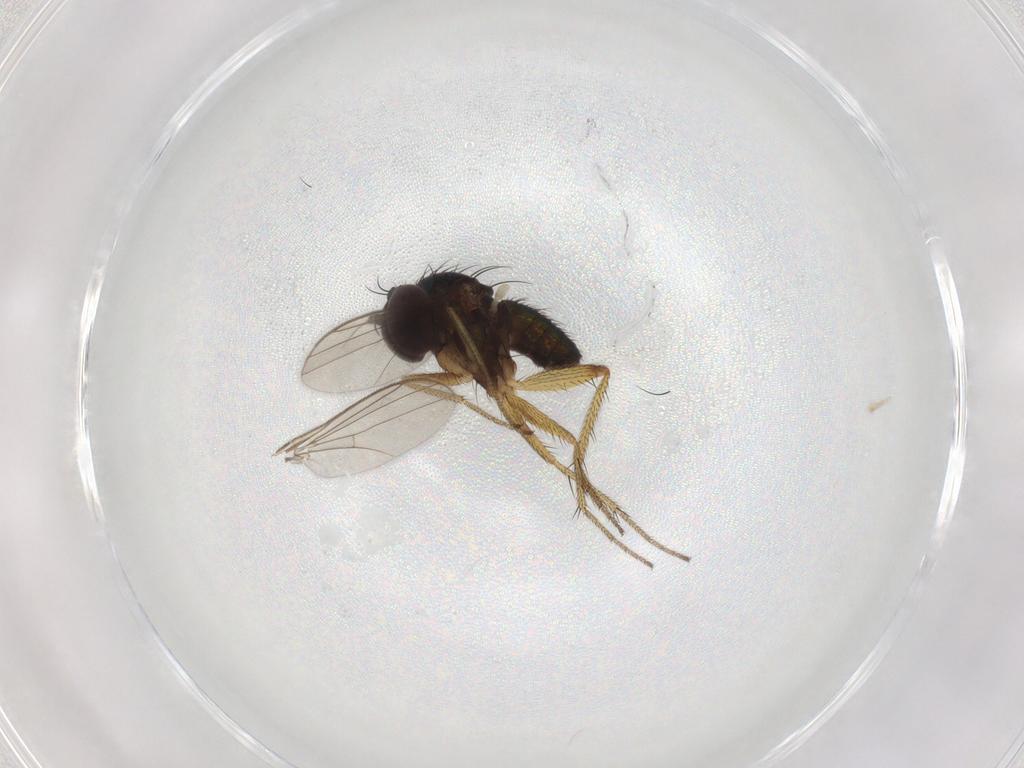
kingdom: Animalia
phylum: Arthropoda
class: Insecta
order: Diptera
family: Dolichopodidae
